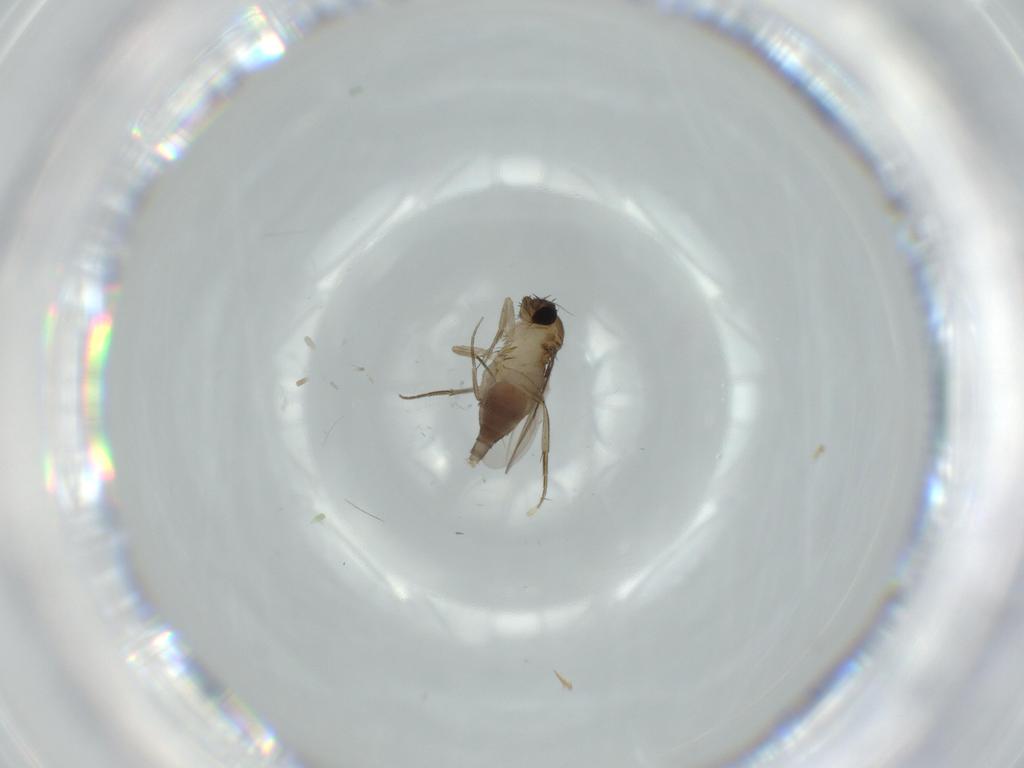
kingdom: Animalia
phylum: Arthropoda
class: Insecta
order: Diptera
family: Phoridae
